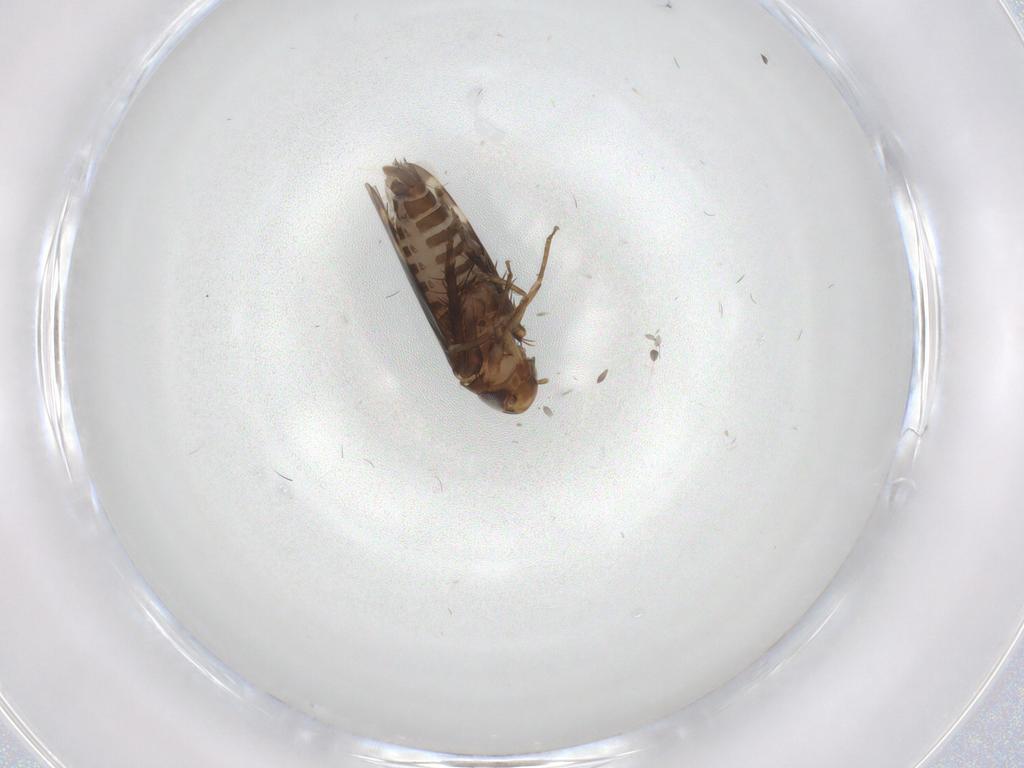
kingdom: Animalia
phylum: Arthropoda
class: Insecta
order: Hemiptera
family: Cicadellidae
